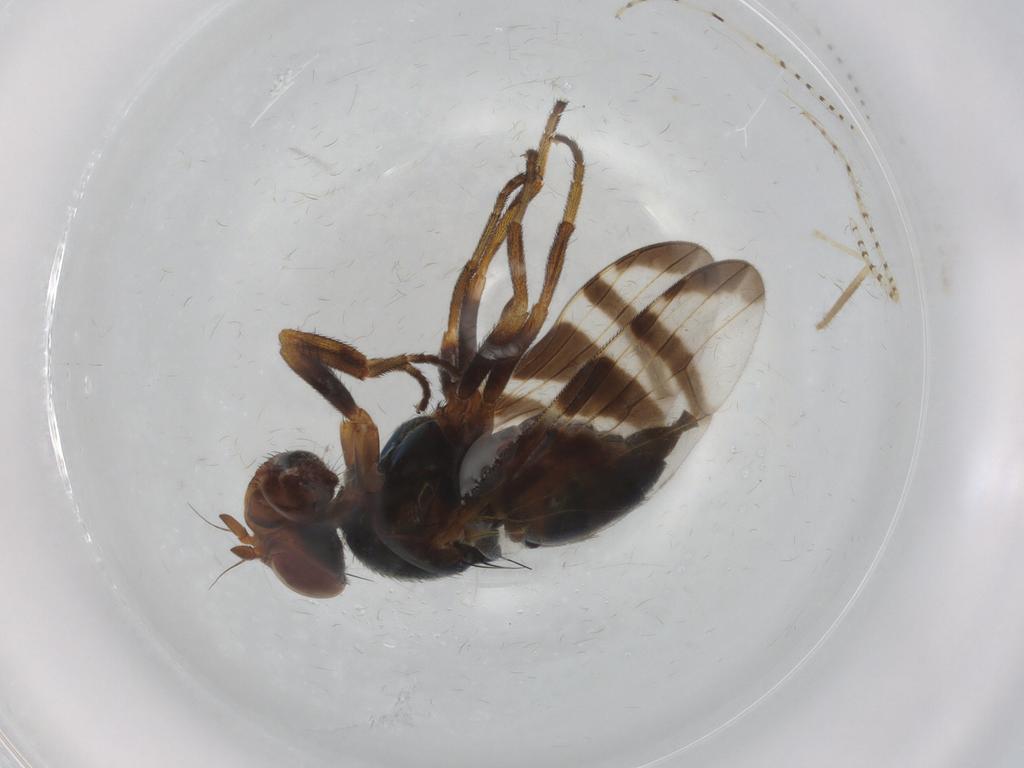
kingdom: Animalia
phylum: Arthropoda
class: Insecta
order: Diptera
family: Platystomatidae
